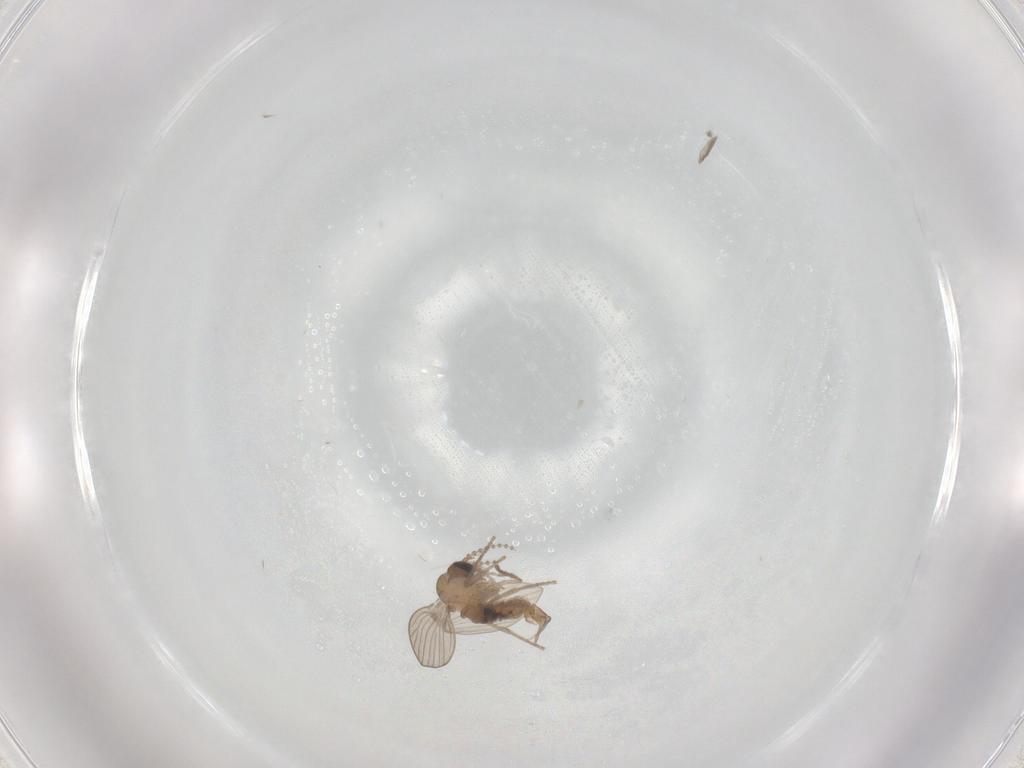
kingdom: Animalia
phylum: Arthropoda
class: Insecta
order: Diptera
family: Psychodidae
